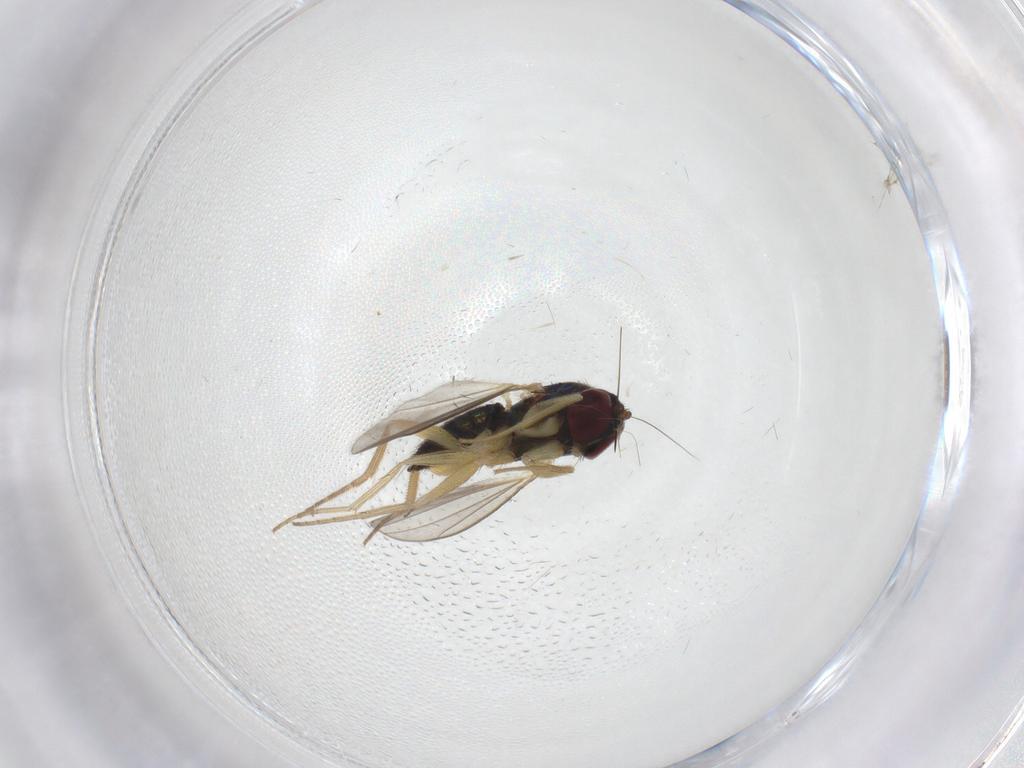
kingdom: Animalia
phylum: Arthropoda
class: Insecta
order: Diptera
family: Dolichopodidae
